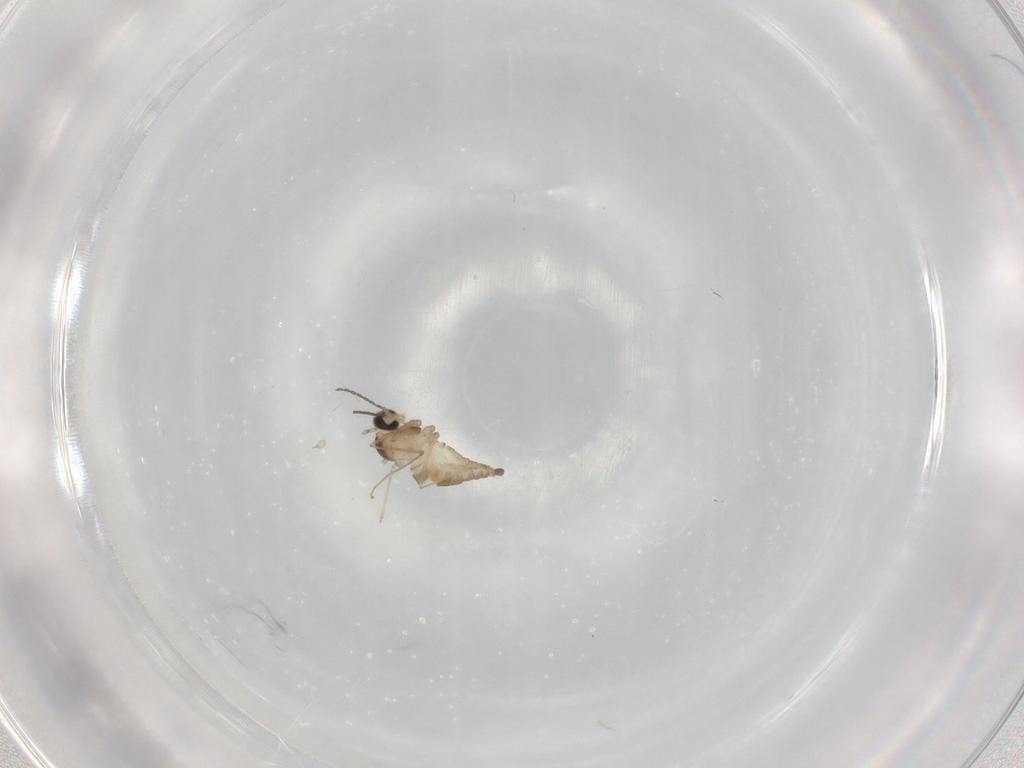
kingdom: Animalia
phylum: Arthropoda
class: Insecta
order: Diptera
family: Cecidomyiidae
